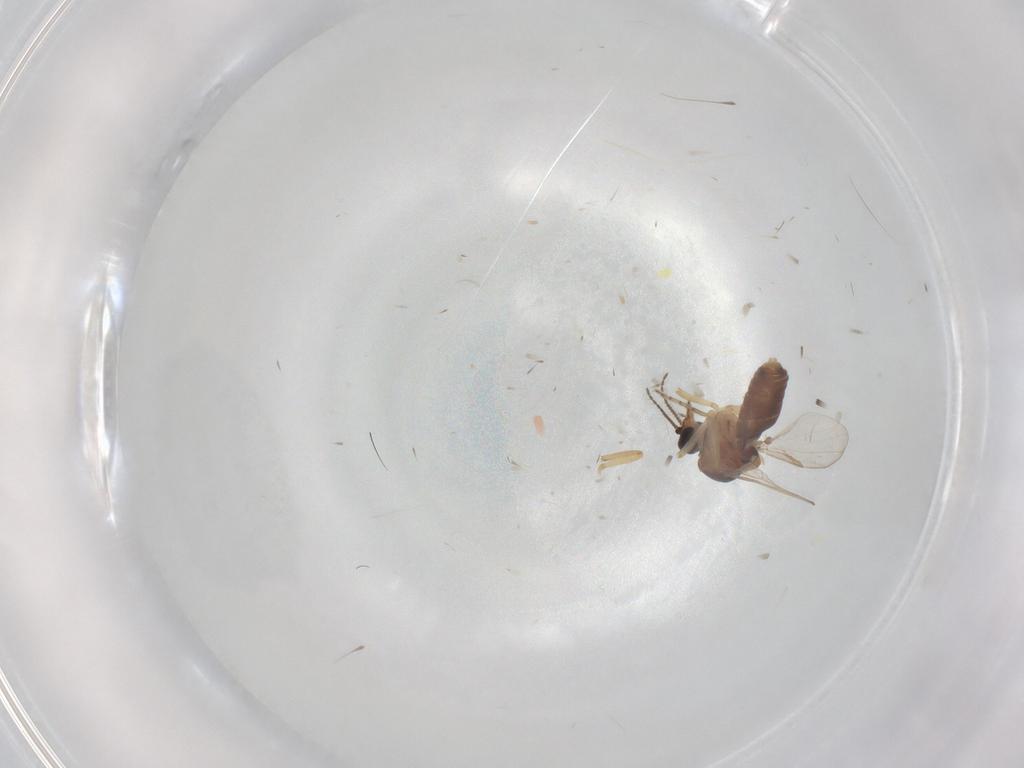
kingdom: Animalia
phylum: Arthropoda
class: Insecta
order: Diptera
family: Ceratopogonidae
